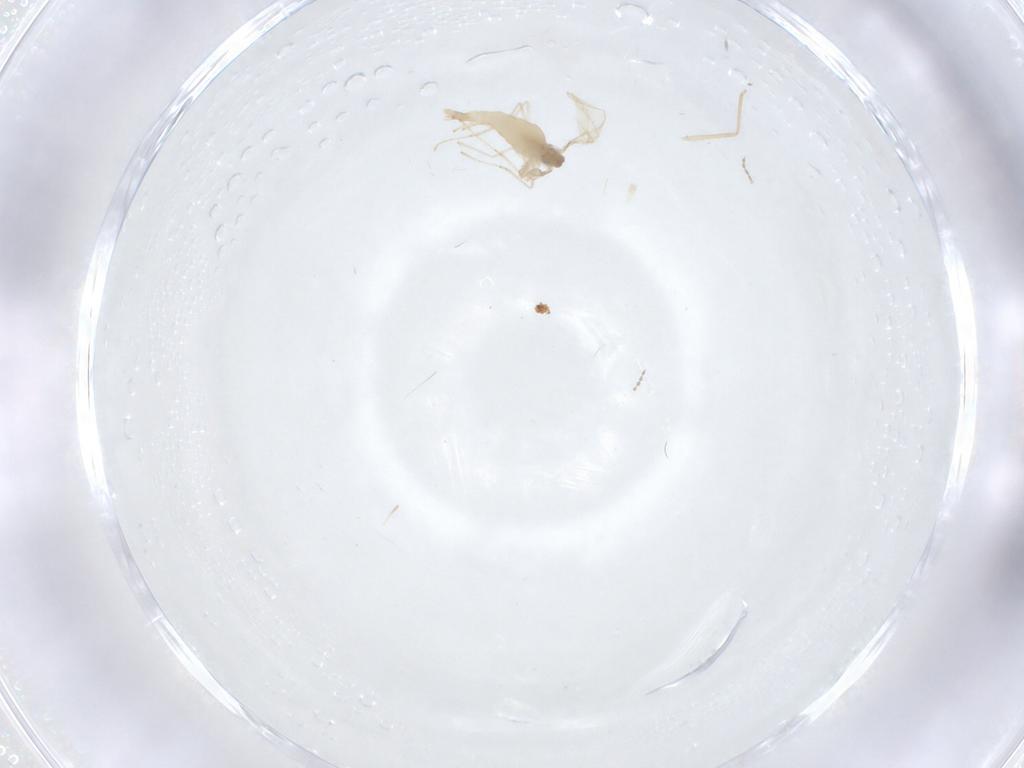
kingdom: Animalia
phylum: Arthropoda
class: Insecta
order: Diptera
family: Cecidomyiidae
